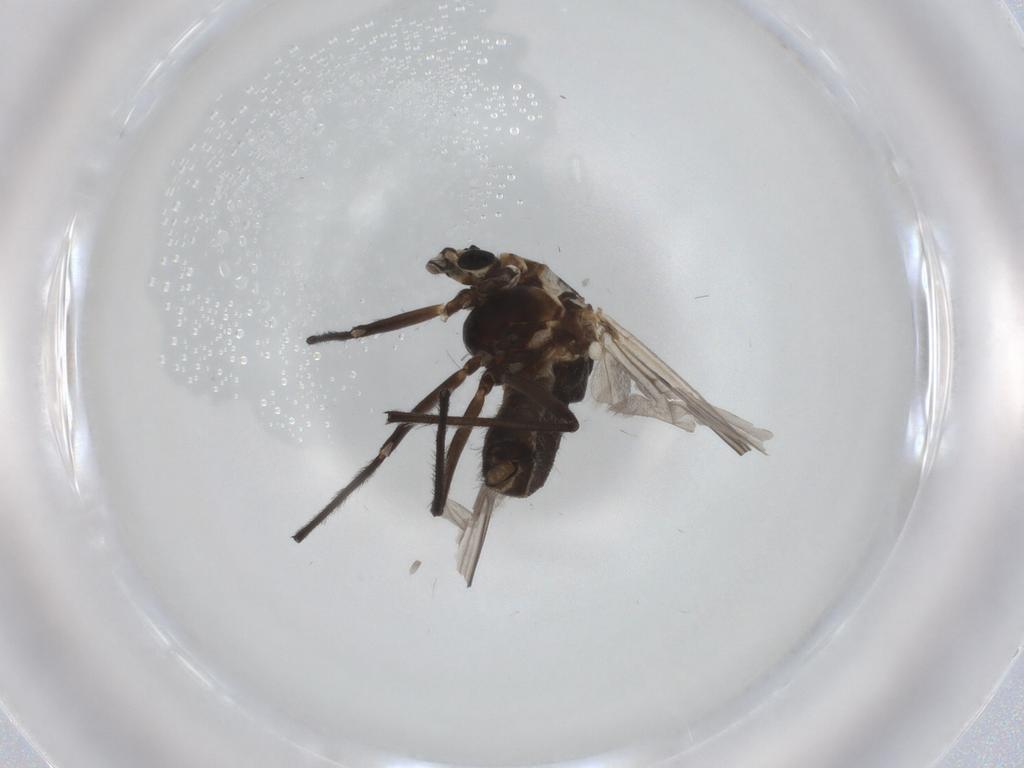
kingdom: Animalia
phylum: Arthropoda
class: Insecta
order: Diptera
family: Chironomidae
